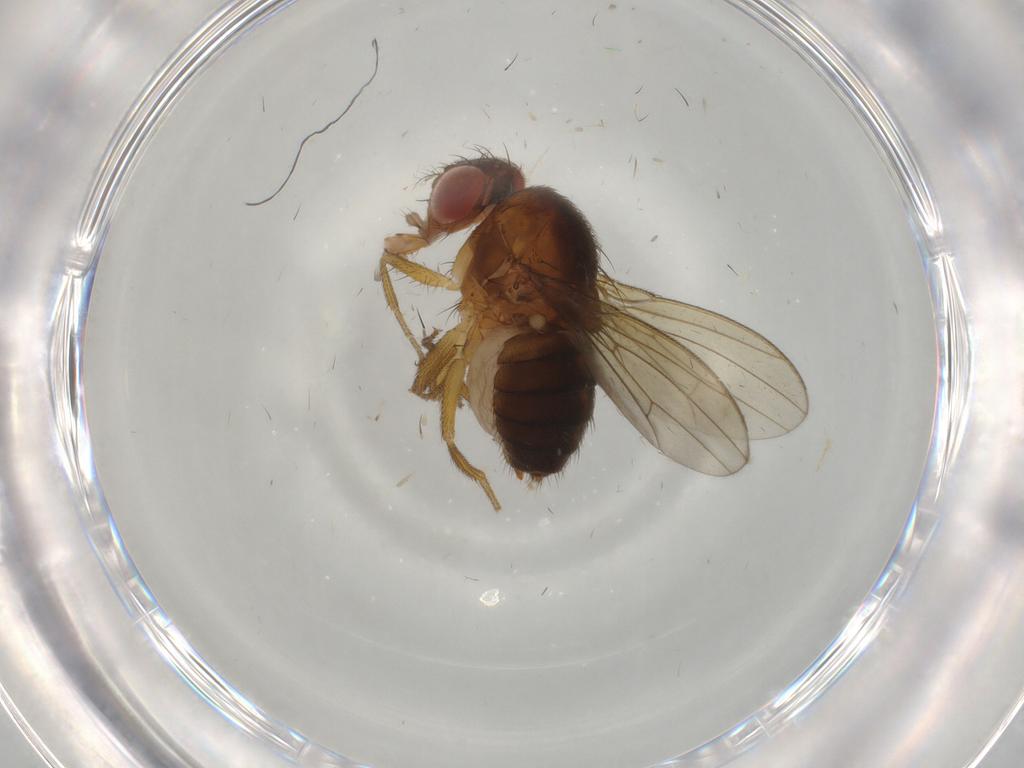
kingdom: Animalia
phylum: Arthropoda
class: Insecta
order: Diptera
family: Drosophilidae
